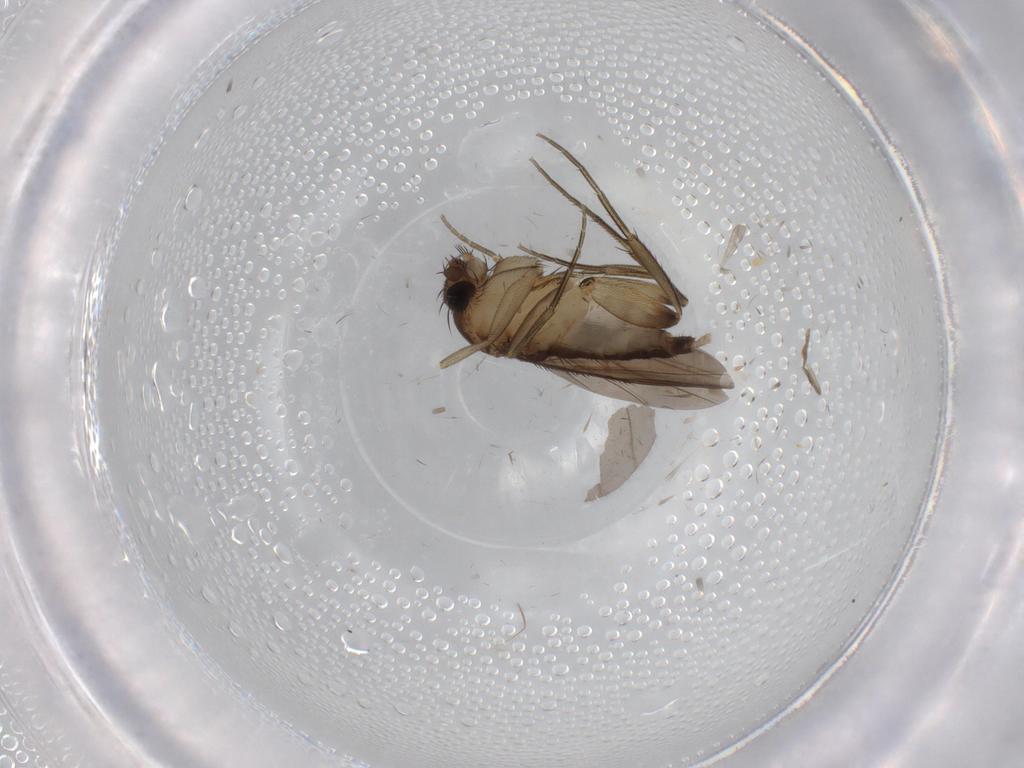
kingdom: Animalia
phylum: Arthropoda
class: Insecta
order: Diptera
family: Phoridae
